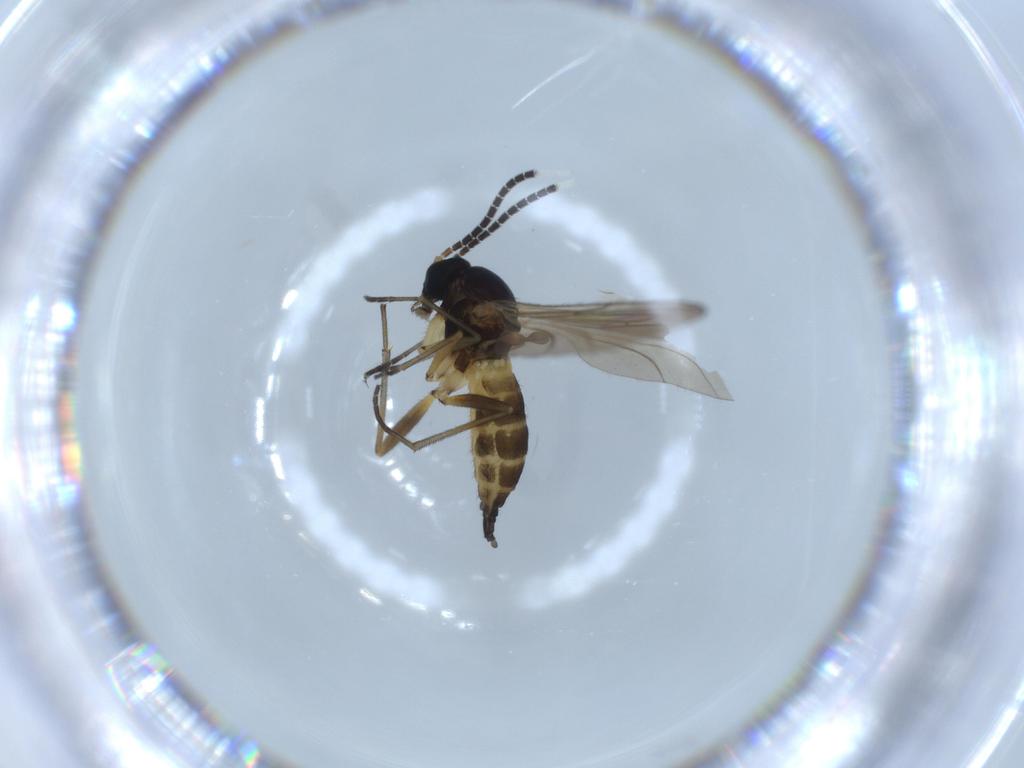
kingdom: Animalia
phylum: Arthropoda
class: Insecta
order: Diptera
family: Sciaridae
